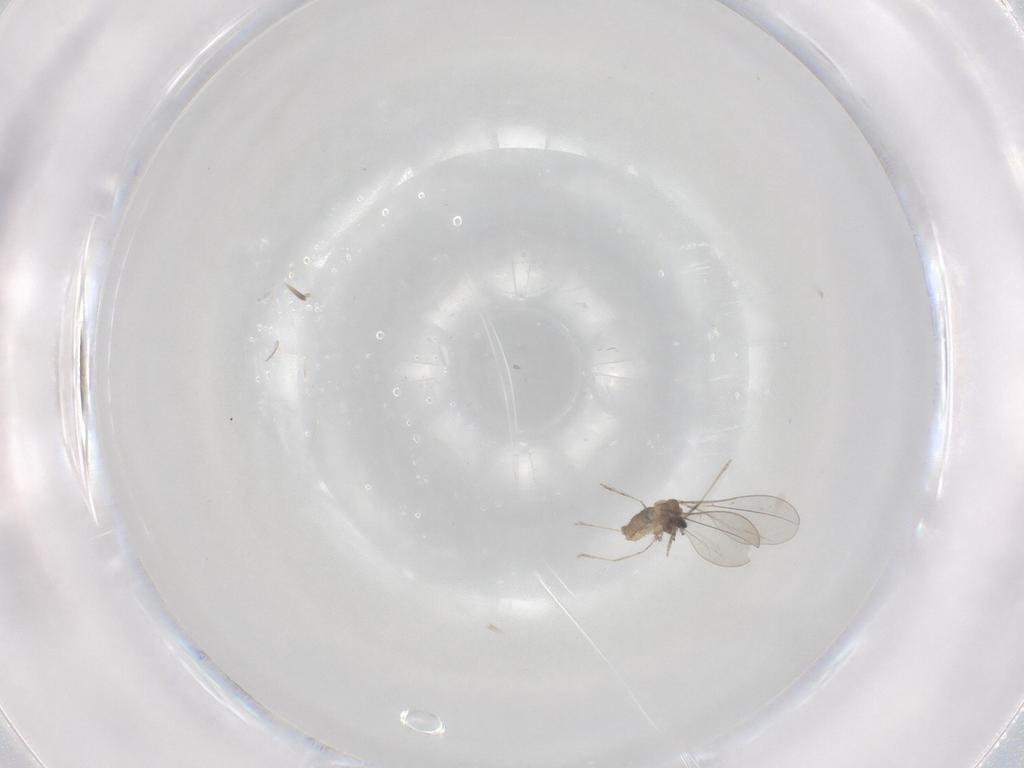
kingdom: Animalia
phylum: Arthropoda
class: Insecta
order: Diptera
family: Cecidomyiidae
